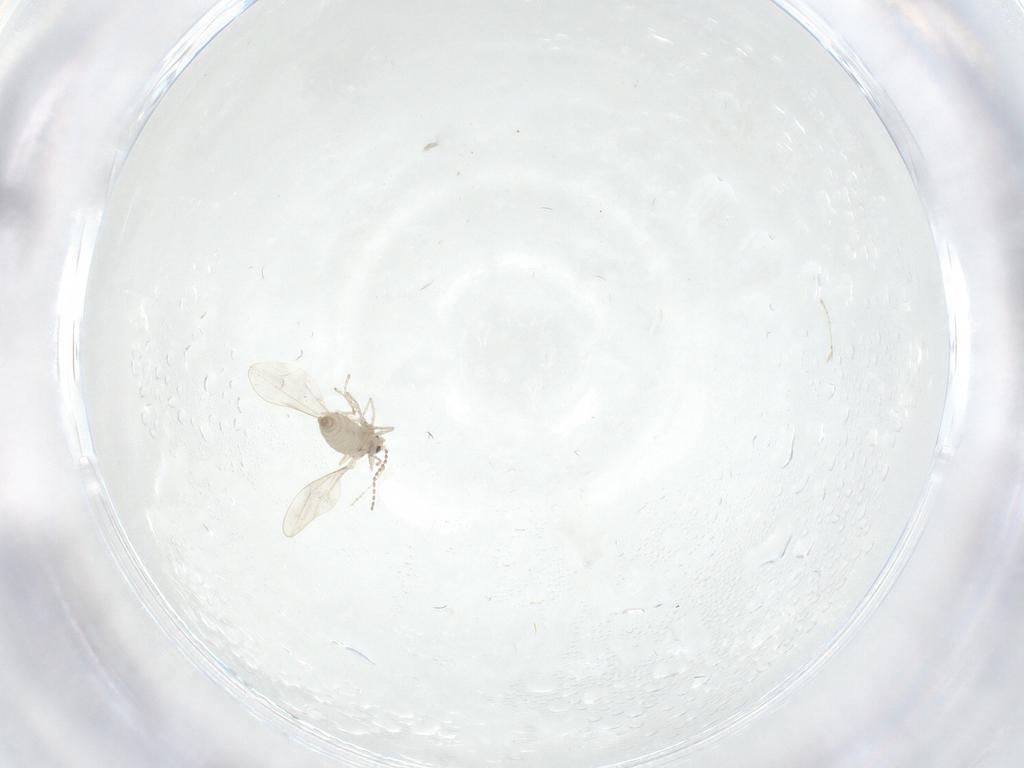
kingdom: Animalia
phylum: Arthropoda
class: Insecta
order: Diptera
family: Cecidomyiidae
